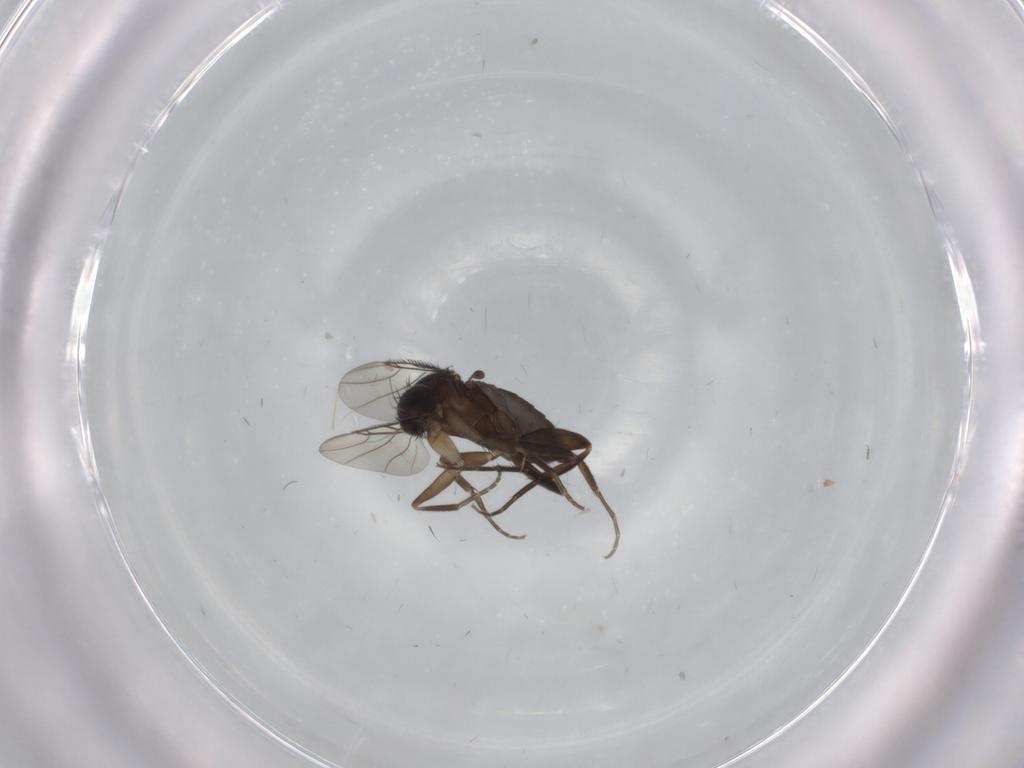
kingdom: Animalia
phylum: Arthropoda
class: Insecta
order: Diptera
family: Phoridae
